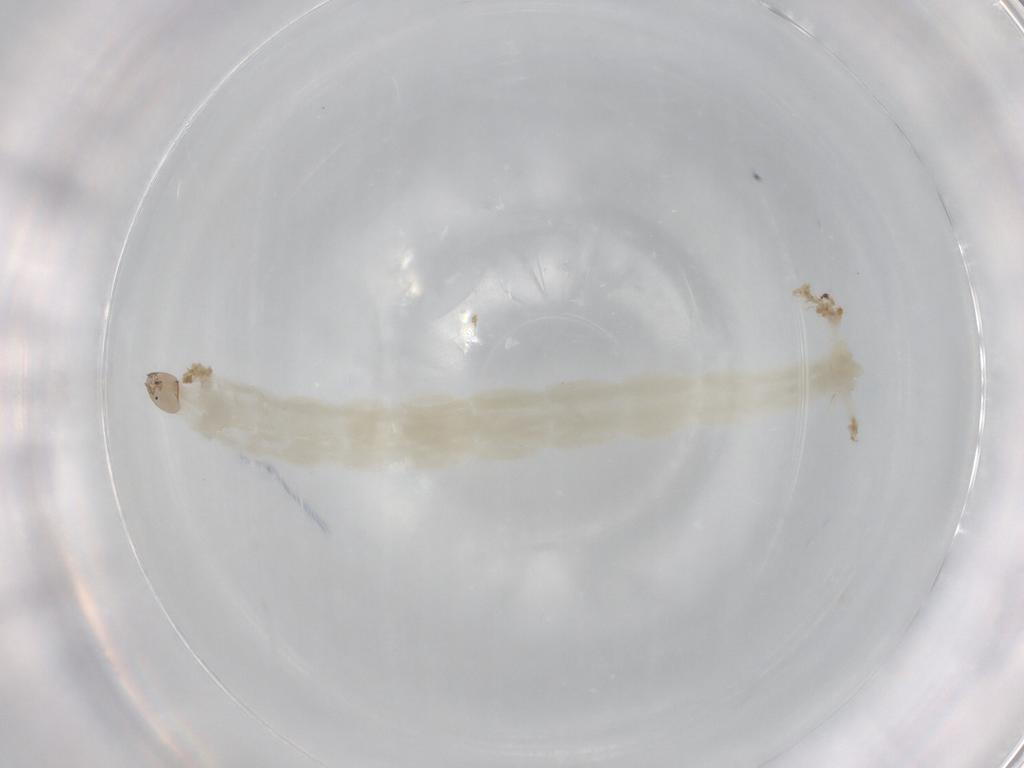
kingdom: Animalia
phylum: Arthropoda
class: Insecta
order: Diptera
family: Chironomidae
